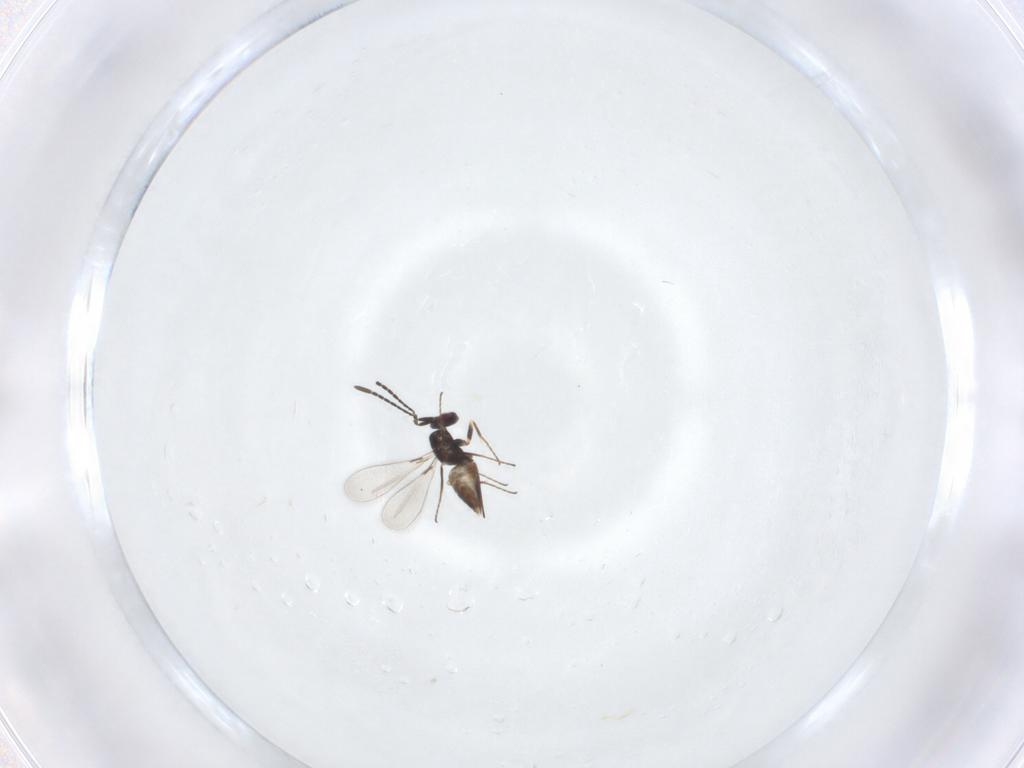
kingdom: Animalia
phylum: Arthropoda
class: Insecta
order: Hymenoptera
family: Mymaridae
